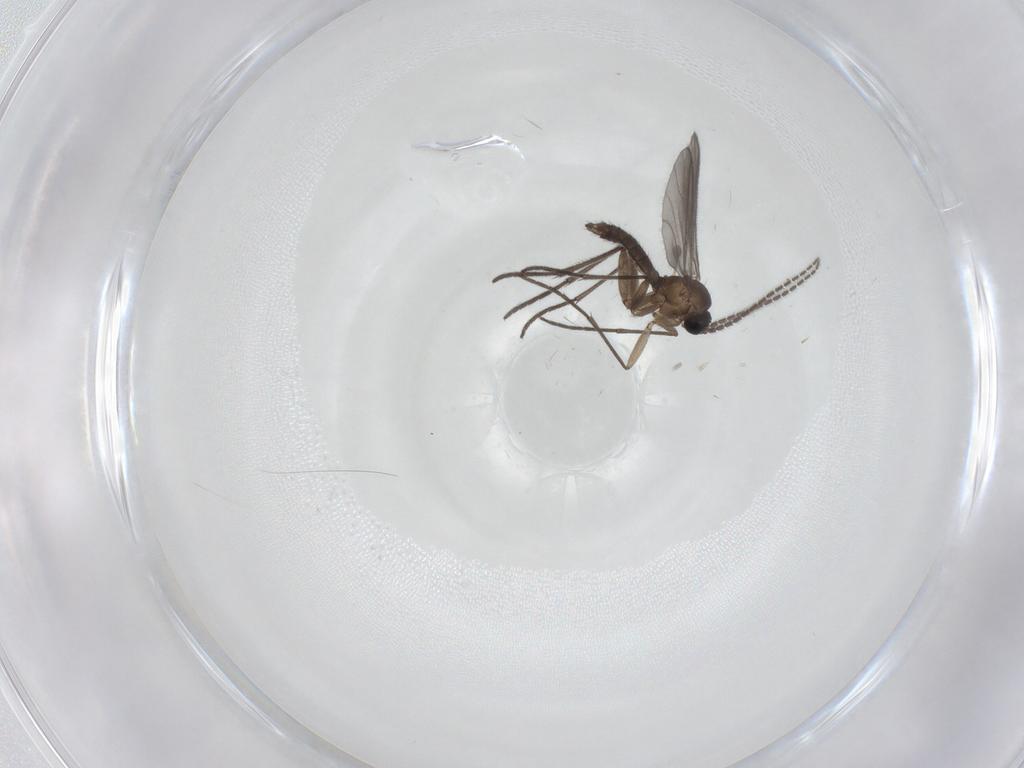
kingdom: Animalia
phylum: Arthropoda
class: Insecta
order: Diptera
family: Sciaridae
